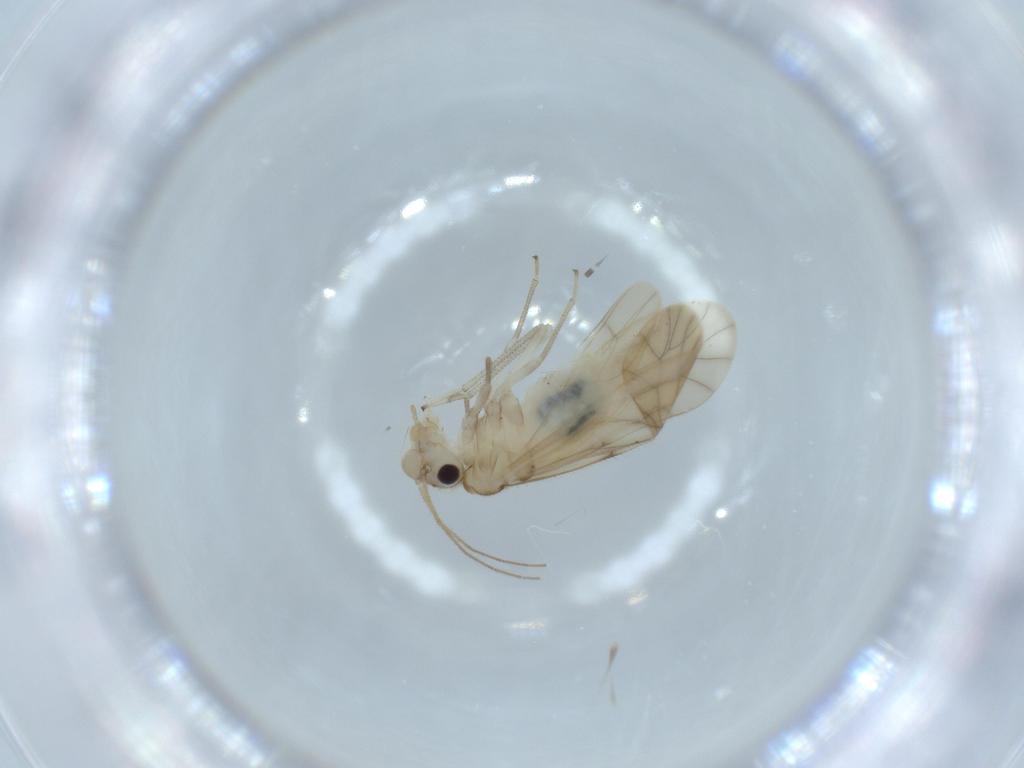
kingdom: Animalia
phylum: Arthropoda
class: Insecta
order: Psocodea
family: Caeciliusidae
